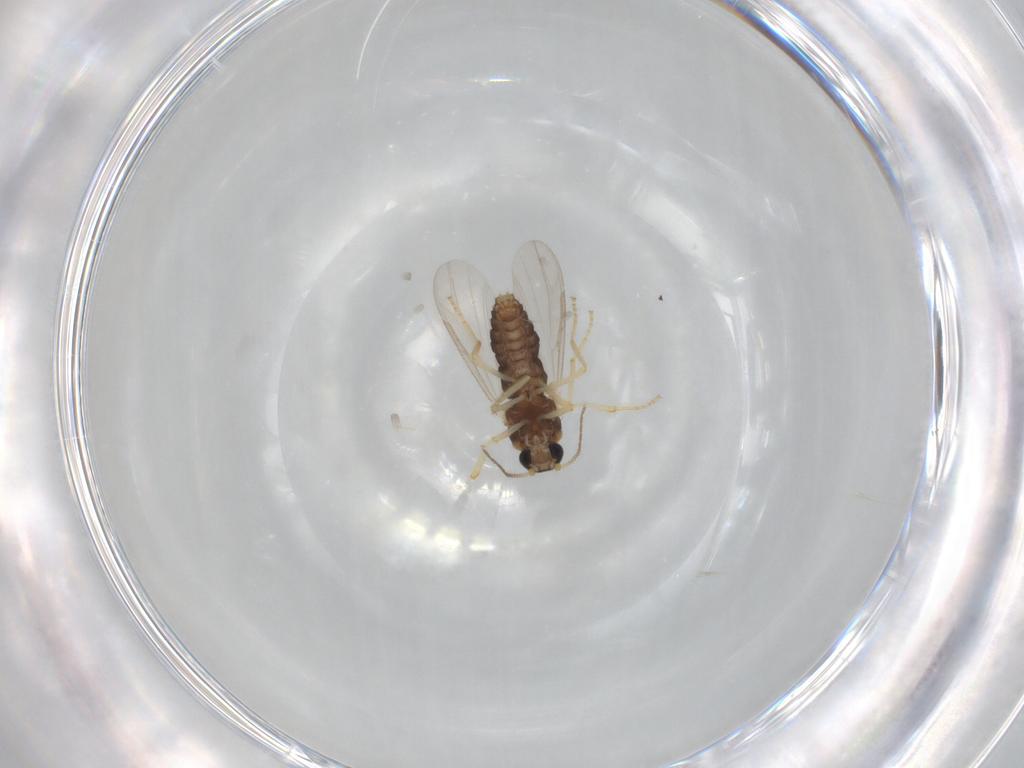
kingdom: Animalia
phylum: Arthropoda
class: Insecta
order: Diptera
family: Ceratopogonidae
